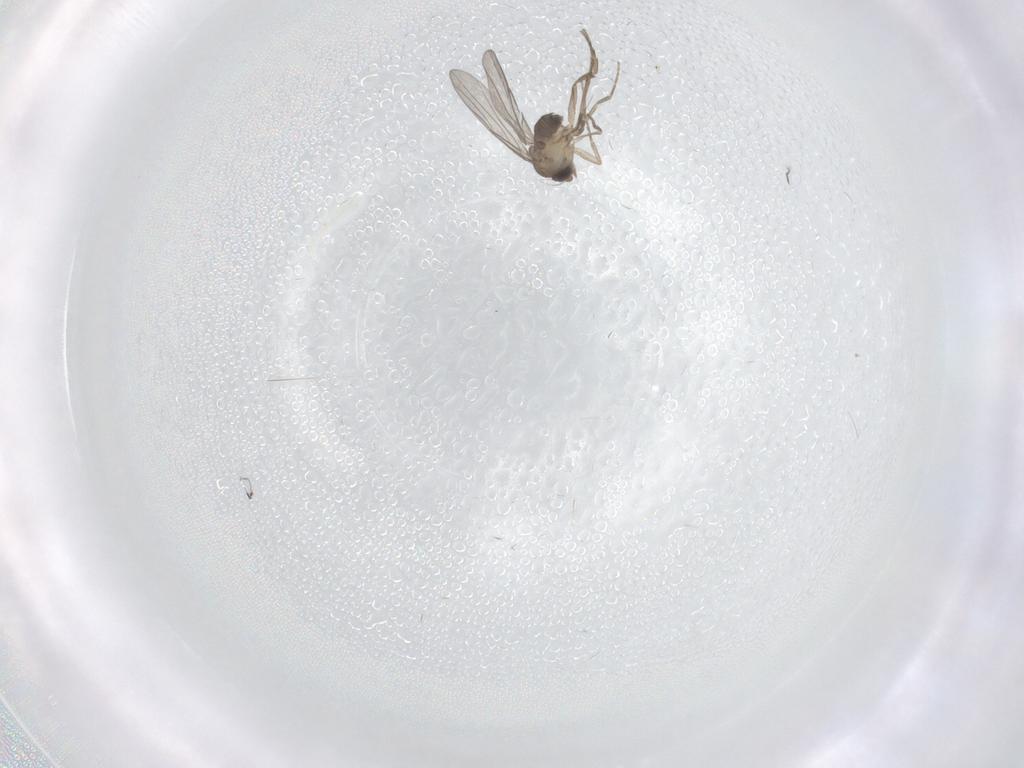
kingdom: Animalia
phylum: Arthropoda
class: Insecta
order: Diptera
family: Phoridae
